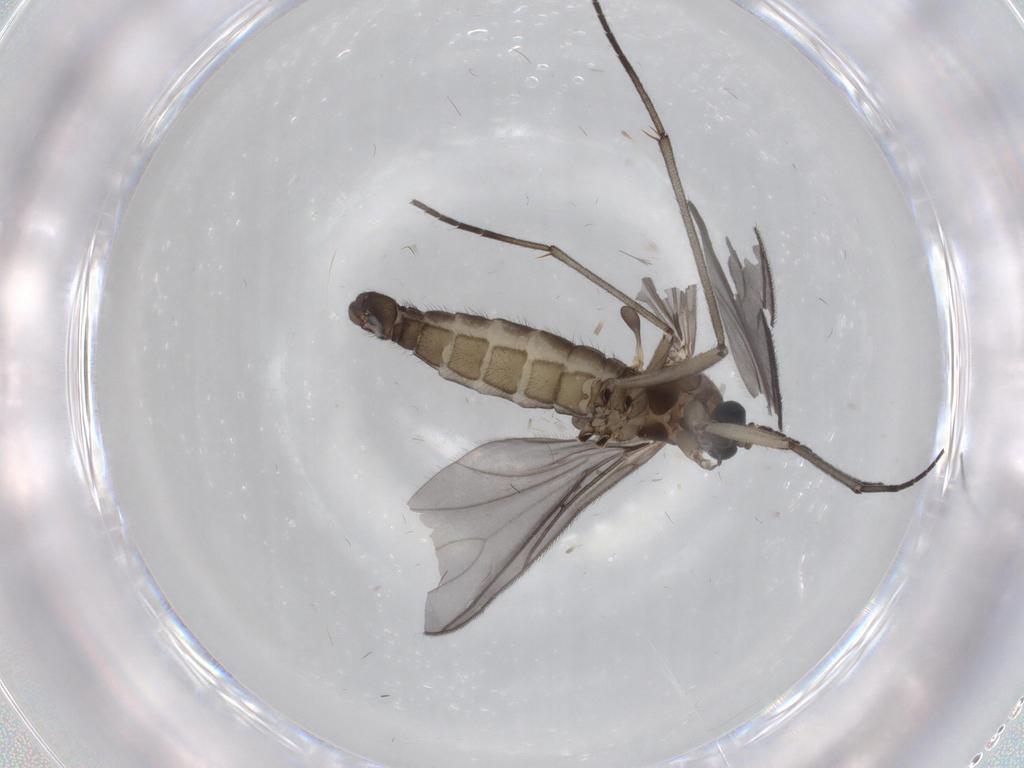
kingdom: Animalia
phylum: Arthropoda
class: Insecta
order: Diptera
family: Sciaridae
